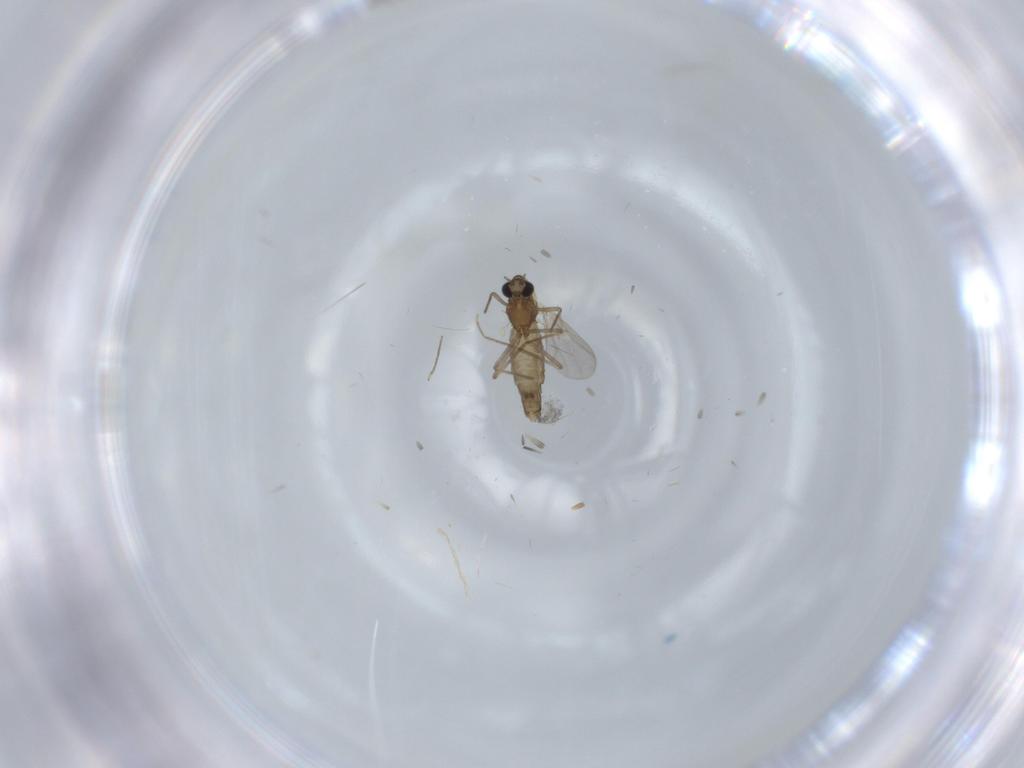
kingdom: Animalia
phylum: Arthropoda
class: Insecta
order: Diptera
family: Chironomidae
